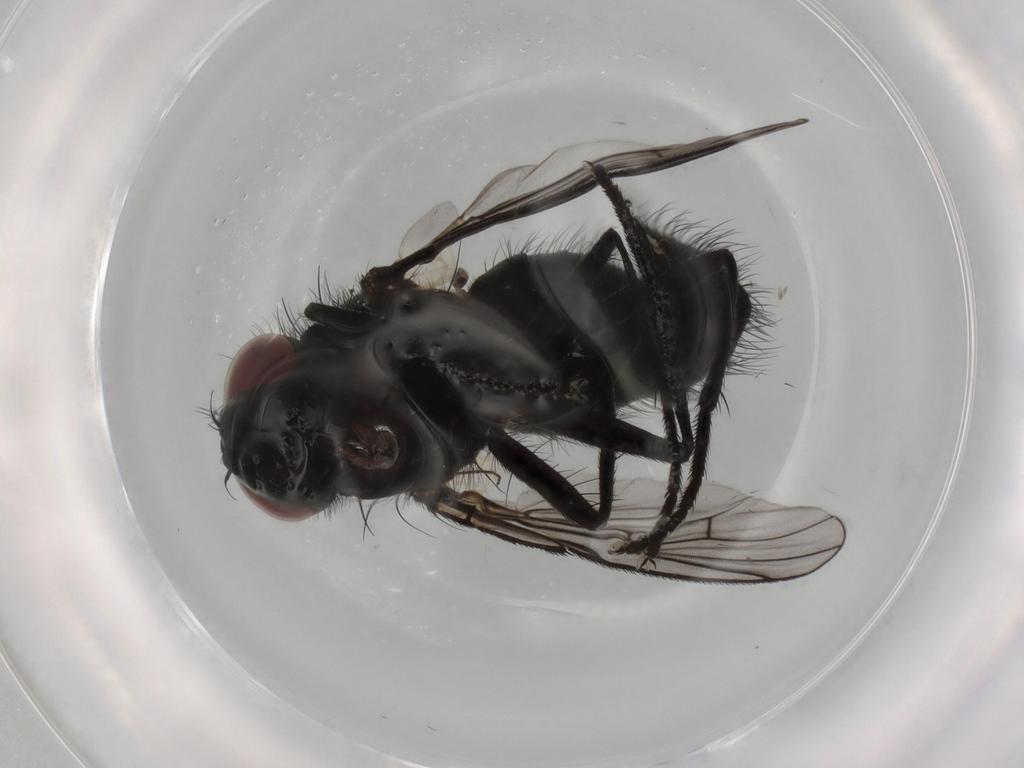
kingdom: Animalia
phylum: Arthropoda
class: Insecta
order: Diptera
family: Muscidae
